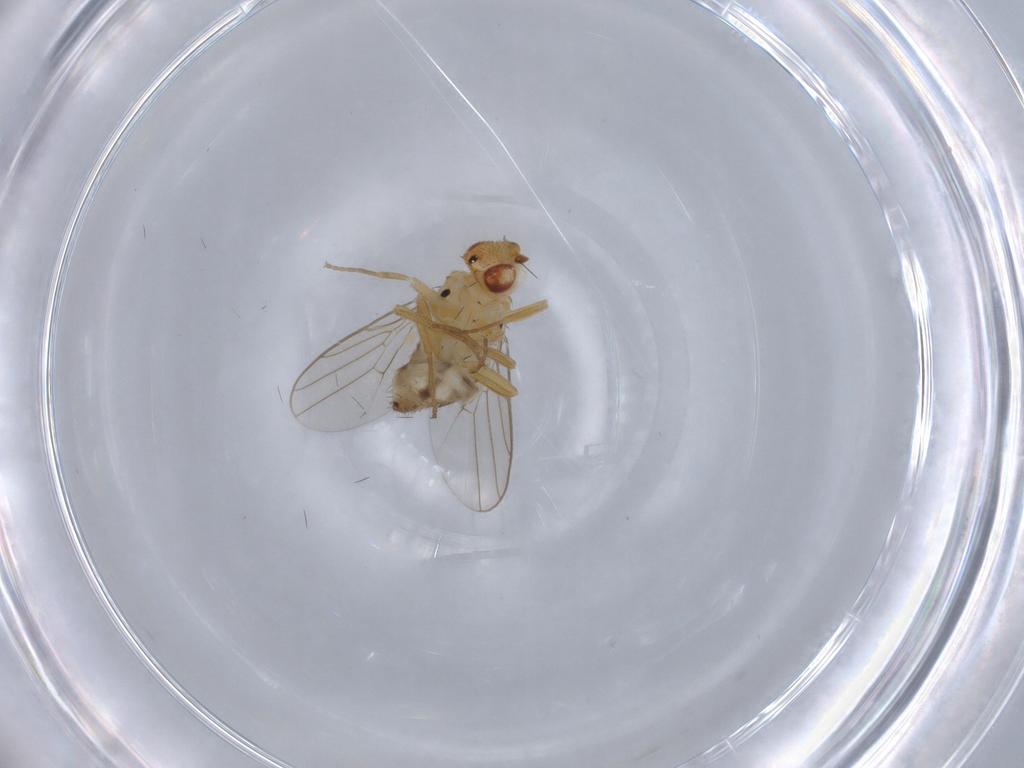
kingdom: Animalia
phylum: Arthropoda
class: Insecta
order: Diptera
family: Chloropidae
